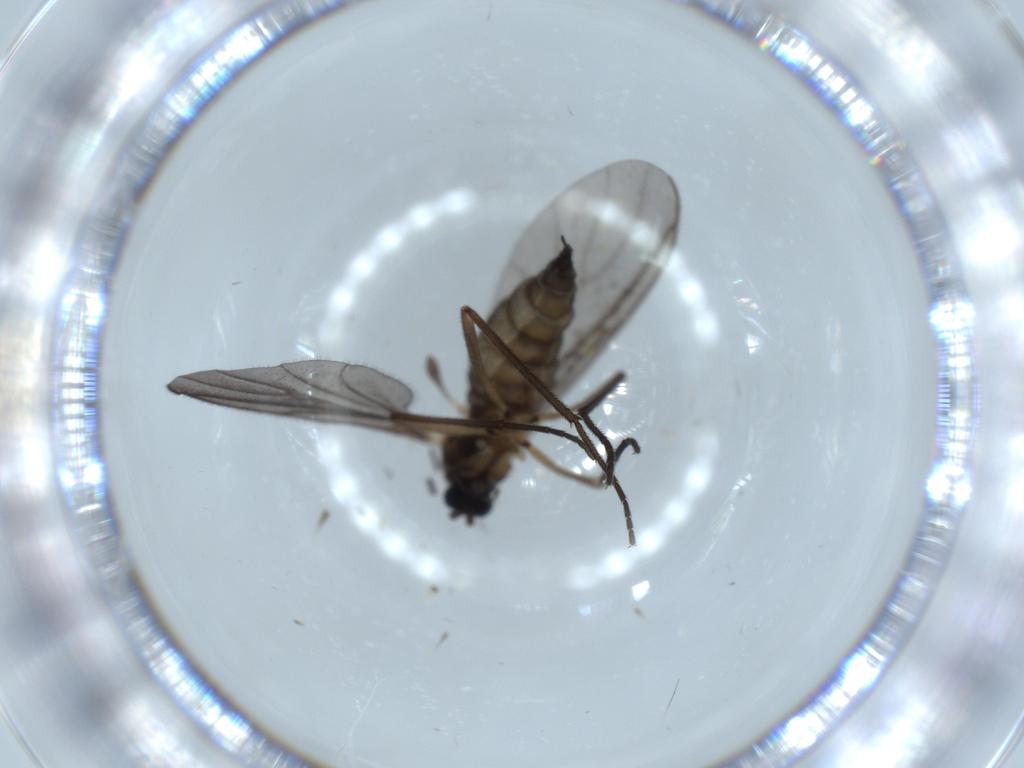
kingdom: Animalia
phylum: Arthropoda
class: Insecta
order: Diptera
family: Sciaridae
